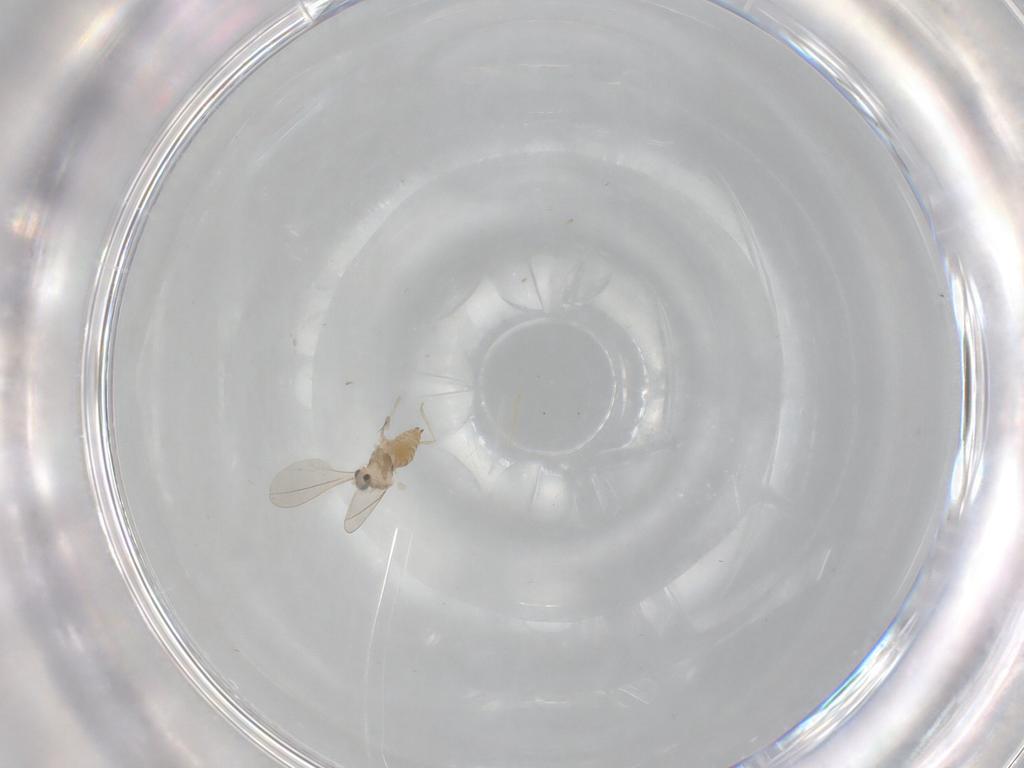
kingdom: Animalia
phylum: Arthropoda
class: Insecta
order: Diptera
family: Cecidomyiidae
